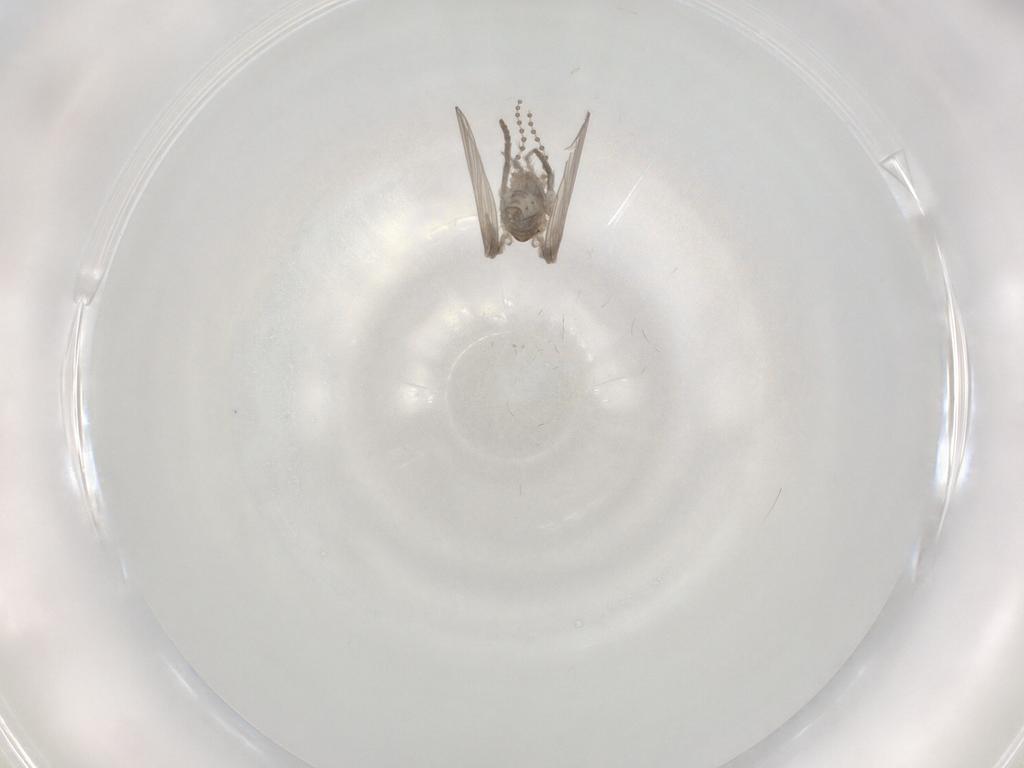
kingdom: Animalia
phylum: Arthropoda
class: Insecta
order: Diptera
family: Psychodidae
